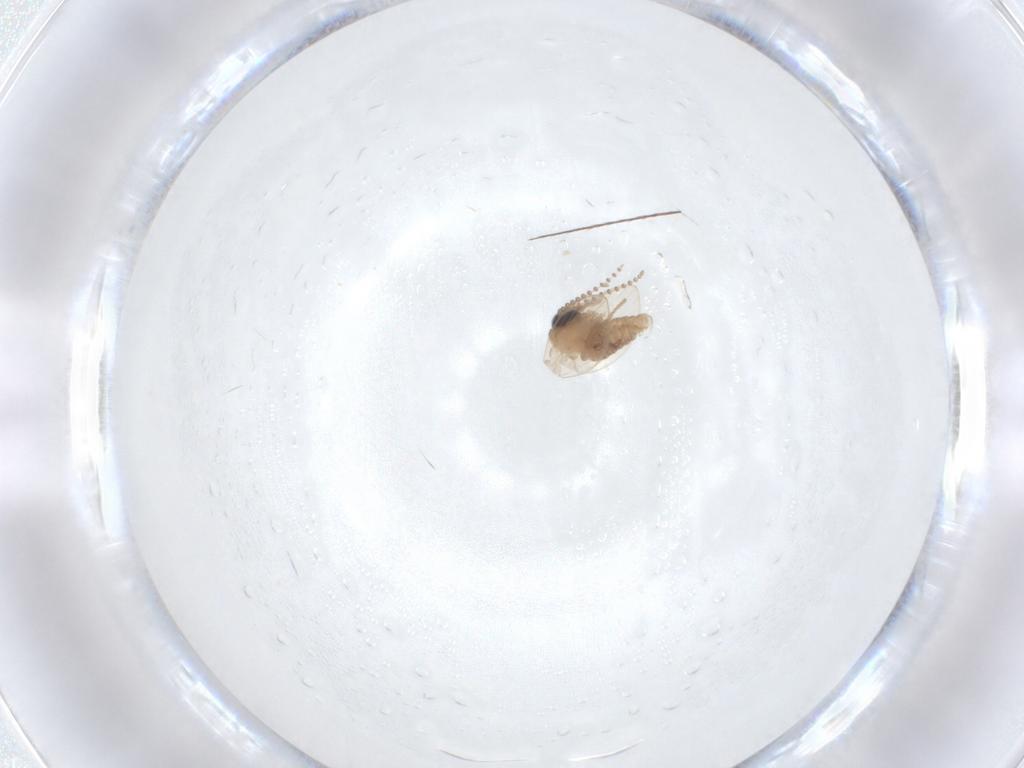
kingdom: Animalia
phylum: Arthropoda
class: Insecta
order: Diptera
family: Psychodidae
